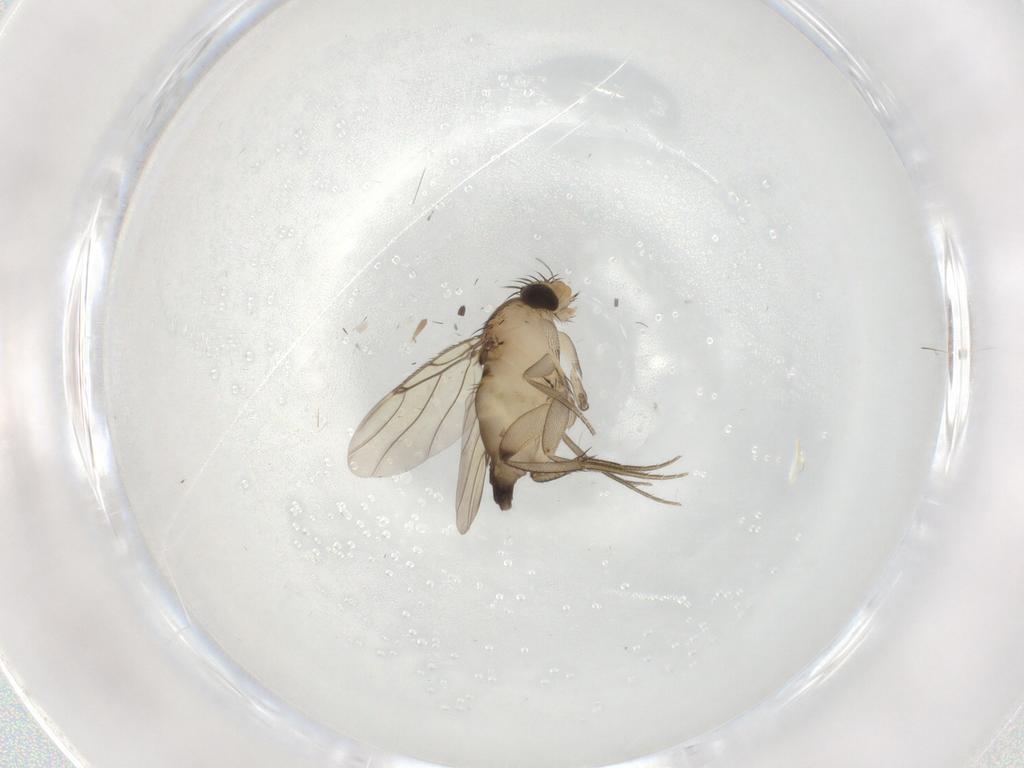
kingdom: Animalia
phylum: Arthropoda
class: Insecta
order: Diptera
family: Phoridae
